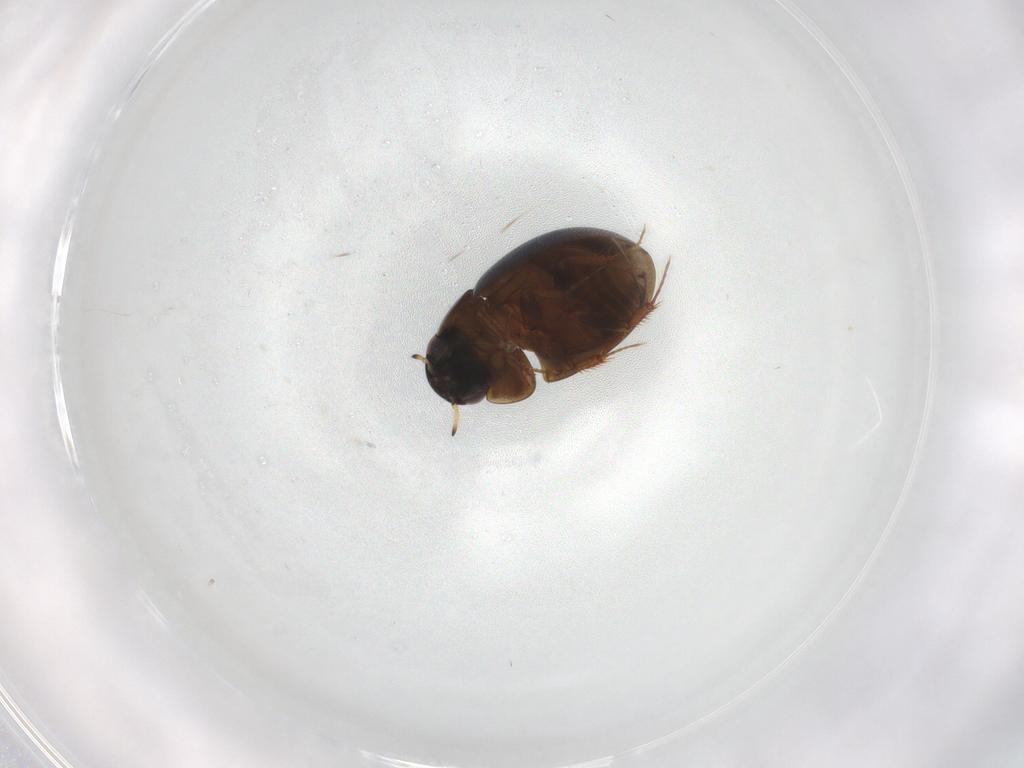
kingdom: Animalia
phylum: Arthropoda
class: Insecta
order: Coleoptera
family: Hydrophilidae
